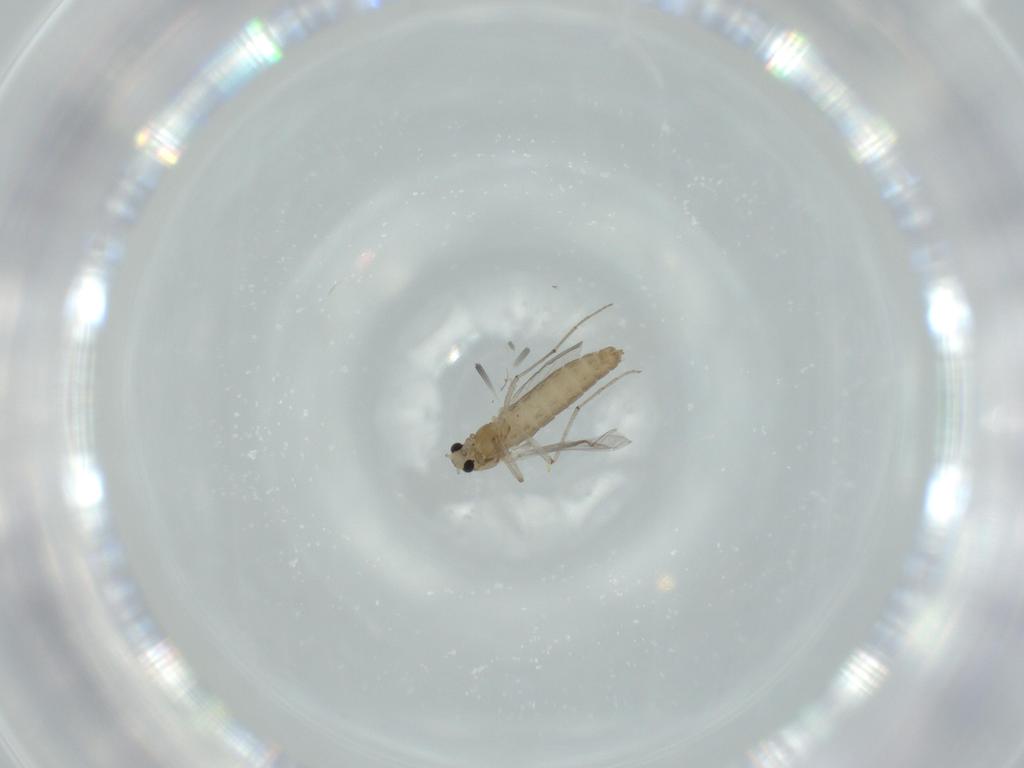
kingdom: Animalia
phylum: Arthropoda
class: Insecta
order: Diptera
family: Chironomidae
